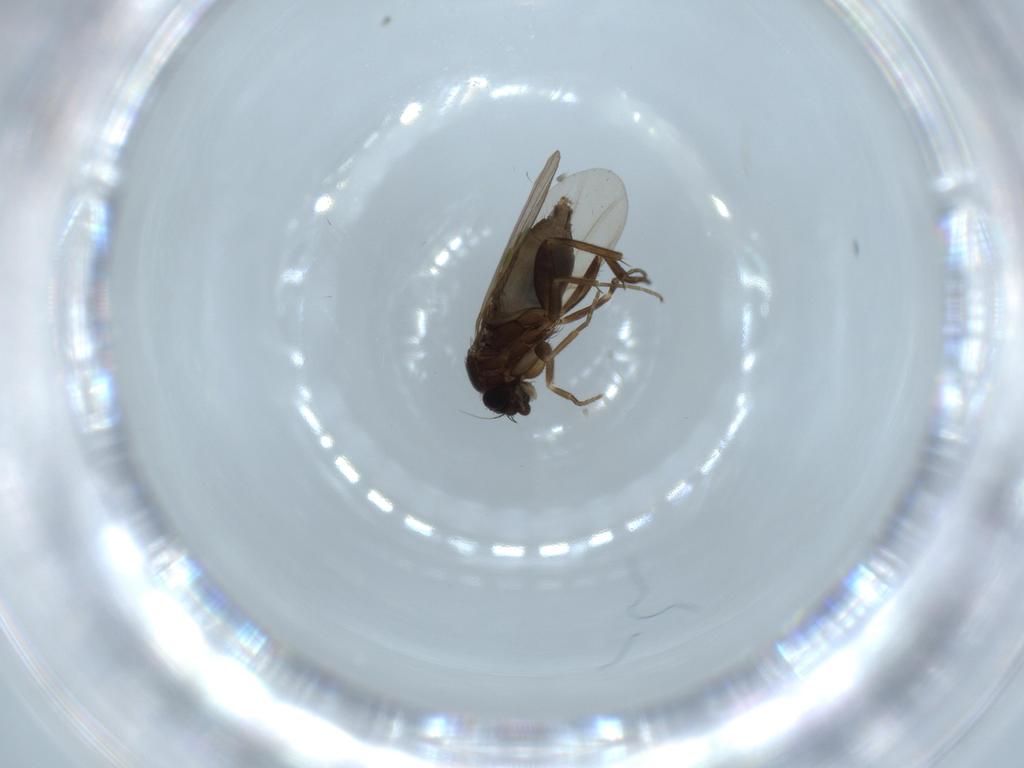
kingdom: Animalia
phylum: Arthropoda
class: Insecta
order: Diptera
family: Phoridae
